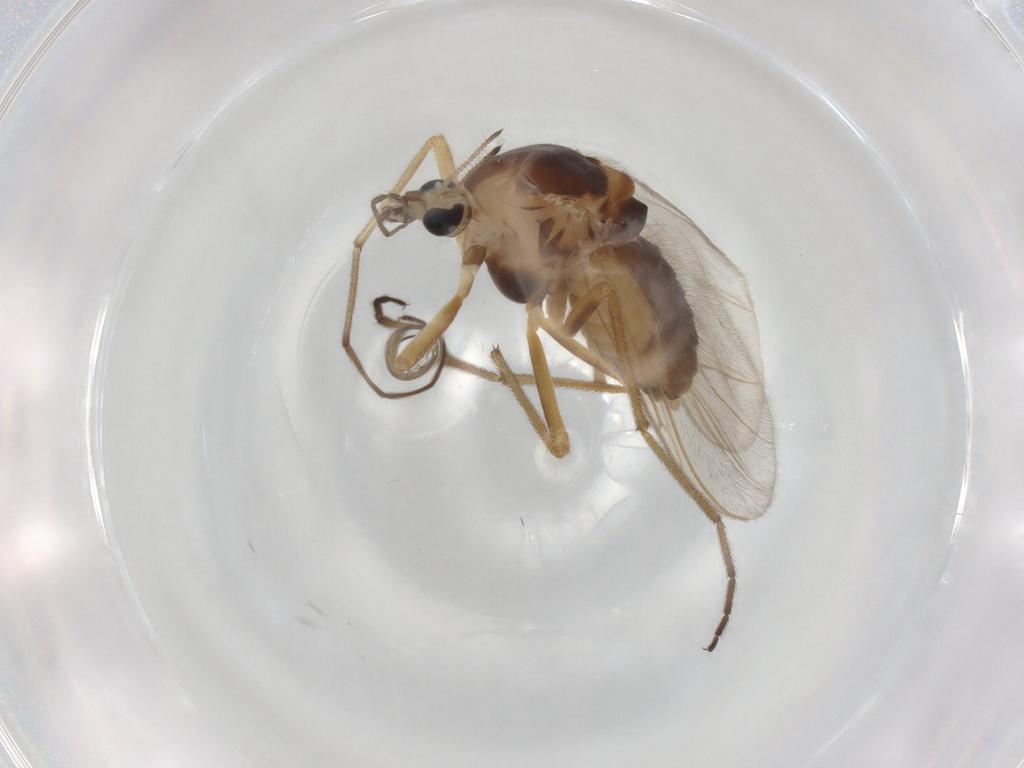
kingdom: Animalia
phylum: Arthropoda
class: Insecta
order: Diptera
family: Chironomidae
